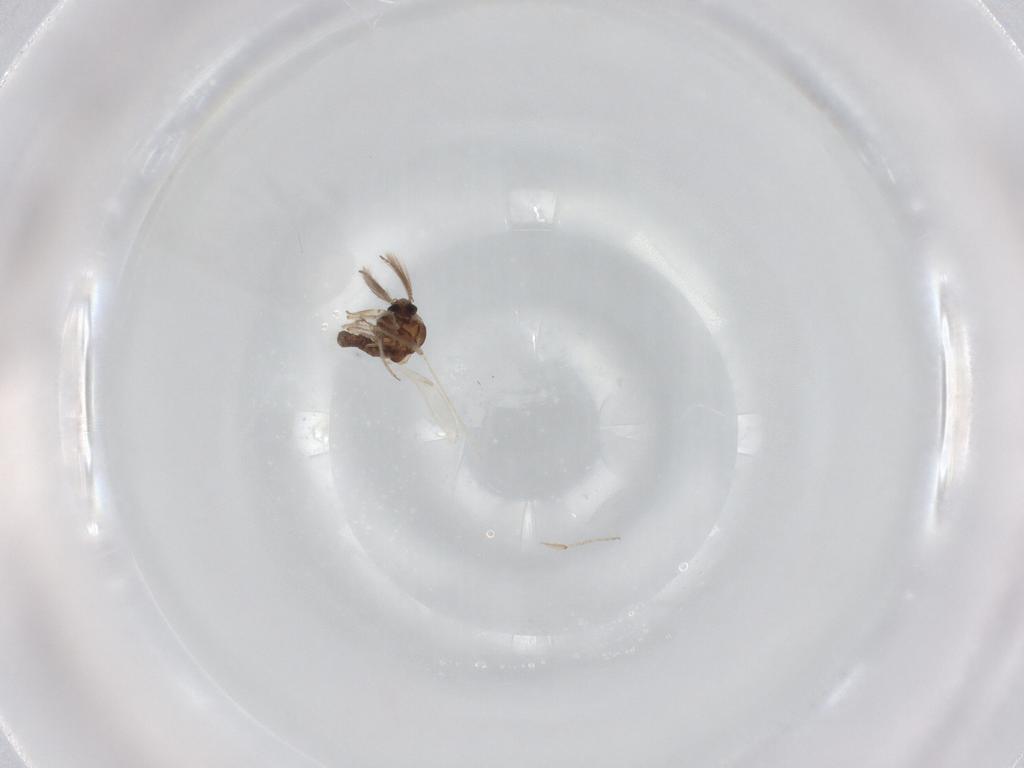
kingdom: Animalia
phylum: Arthropoda
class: Insecta
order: Diptera
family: Ceratopogonidae
